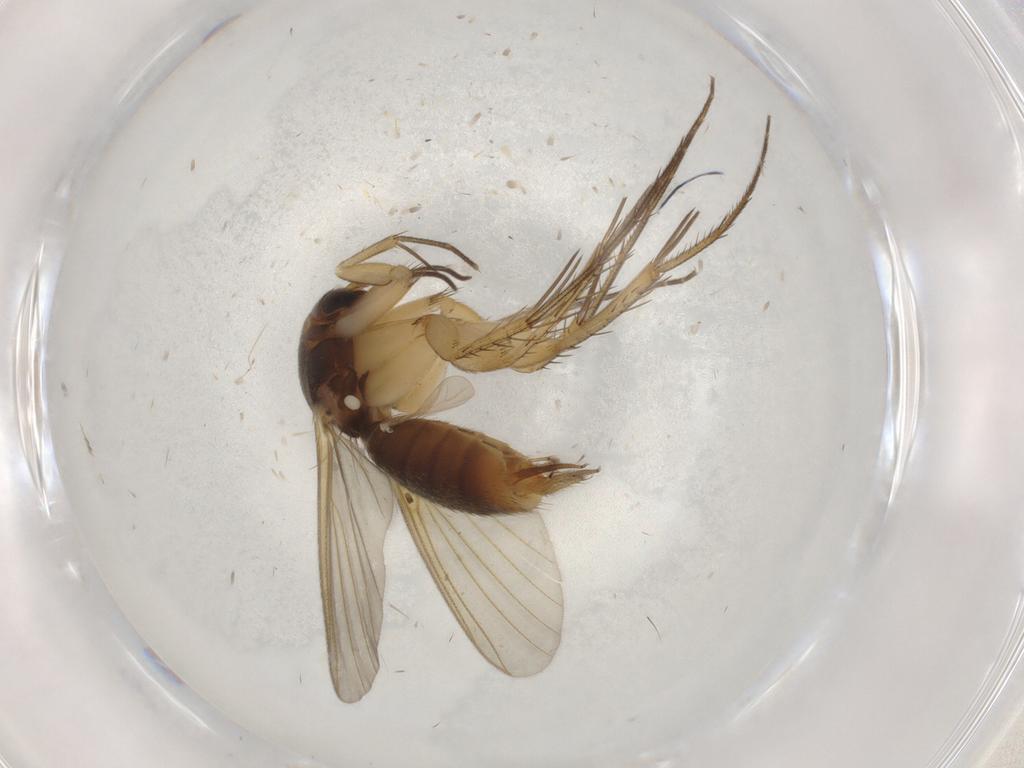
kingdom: Animalia
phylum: Arthropoda
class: Insecta
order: Diptera
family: Mycetophilidae
